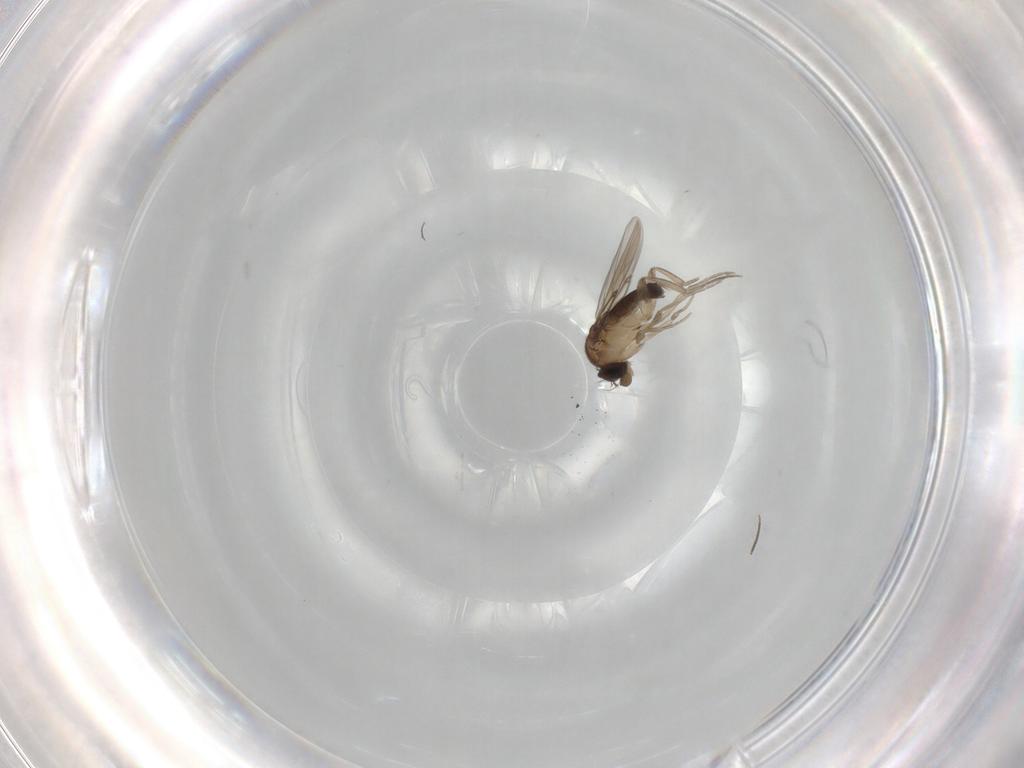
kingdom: Animalia
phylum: Arthropoda
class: Insecta
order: Diptera
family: Phoridae
